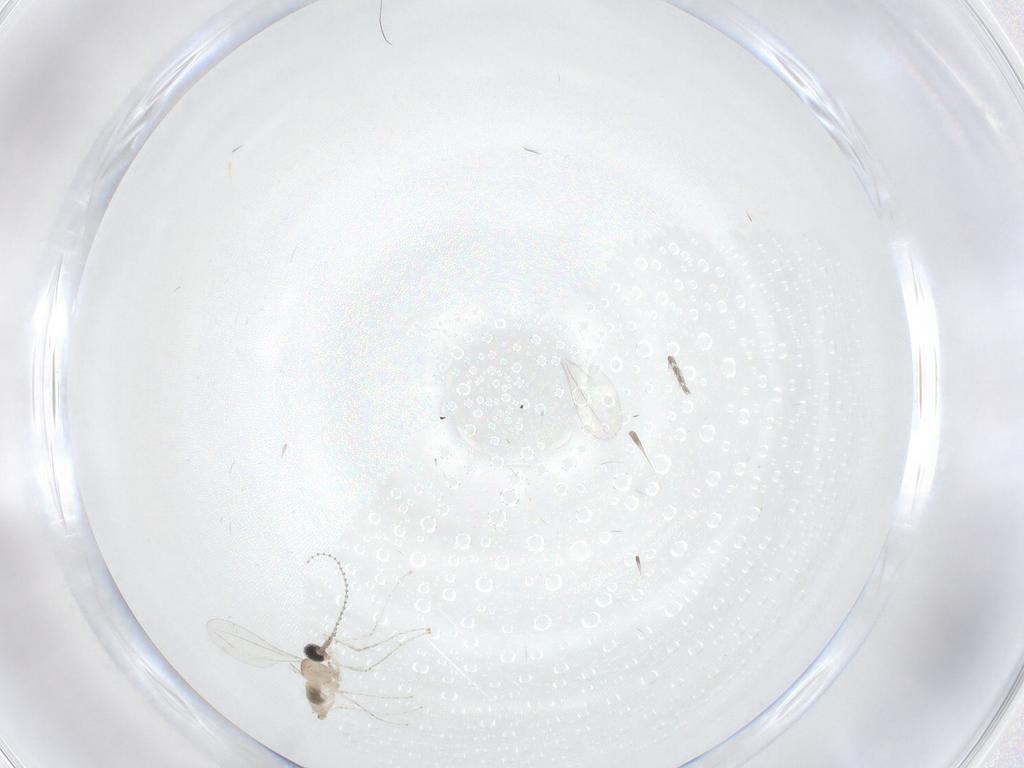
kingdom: Animalia
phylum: Arthropoda
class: Insecta
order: Diptera
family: Cecidomyiidae
